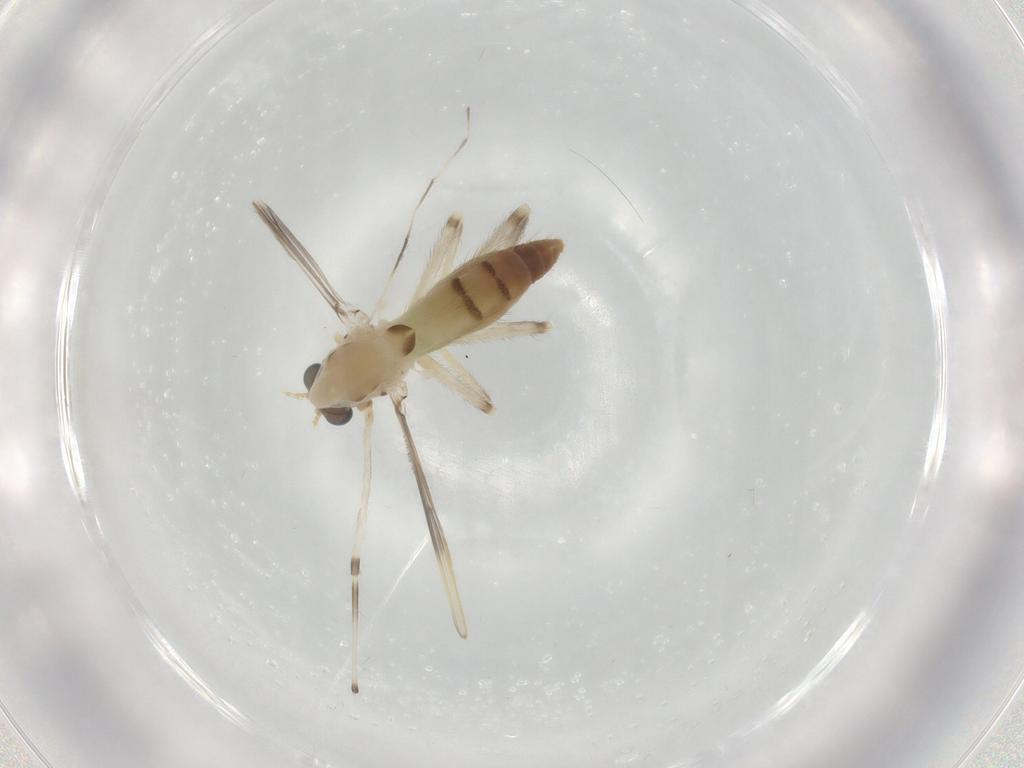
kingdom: Animalia
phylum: Arthropoda
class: Insecta
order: Diptera
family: Chironomidae
